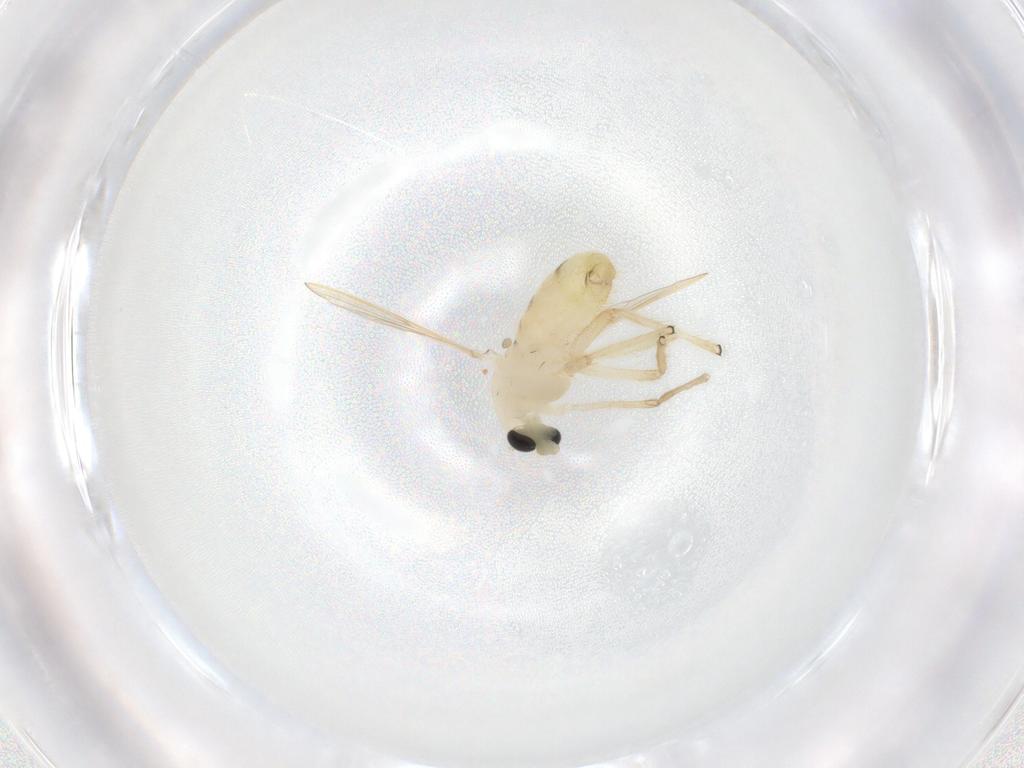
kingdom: Animalia
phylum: Arthropoda
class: Insecta
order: Diptera
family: Chironomidae
